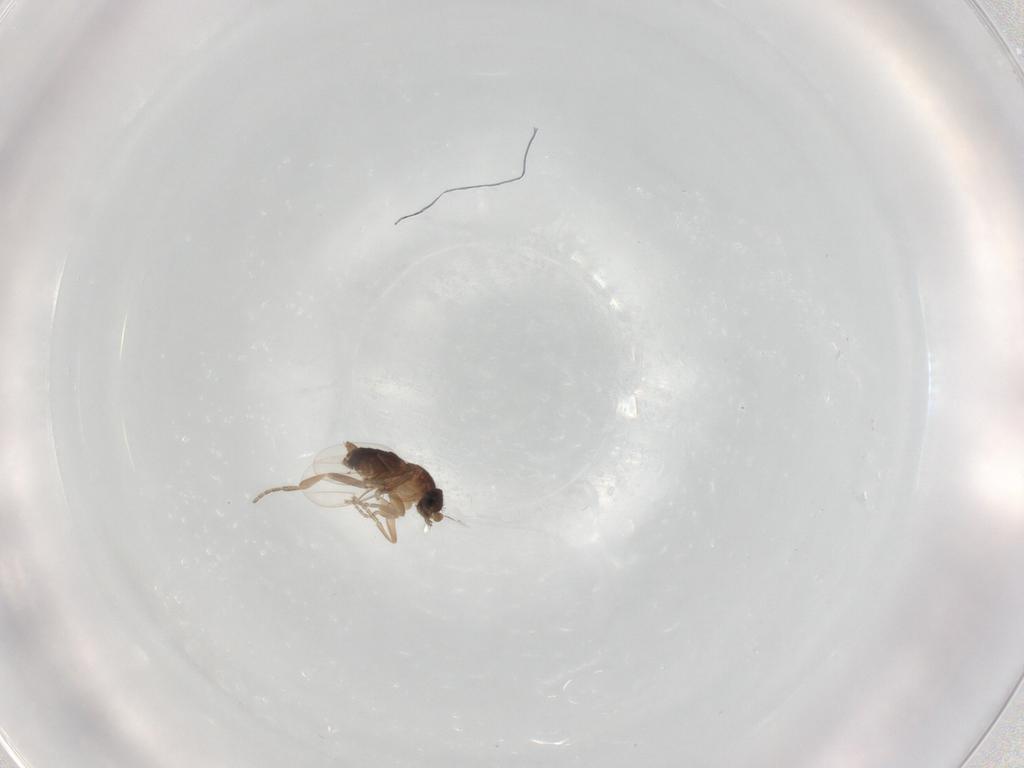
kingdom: Animalia
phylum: Arthropoda
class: Insecta
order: Diptera
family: Phoridae
